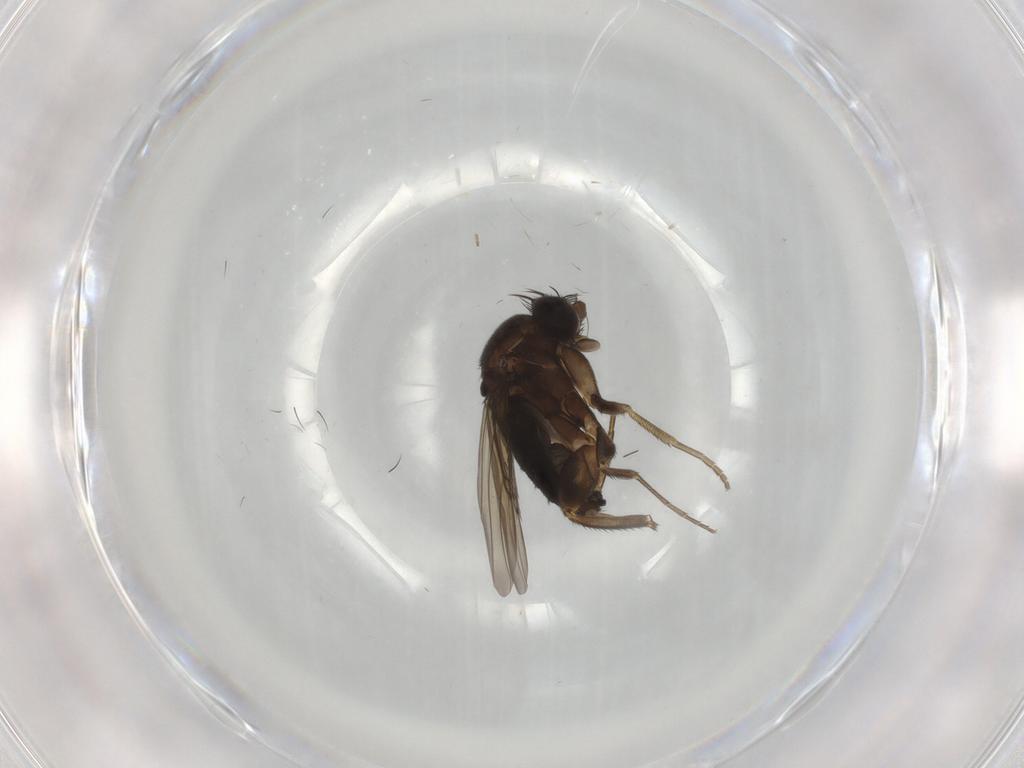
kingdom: Animalia
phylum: Arthropoda
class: Insecta
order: Diptera
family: Phoridae
